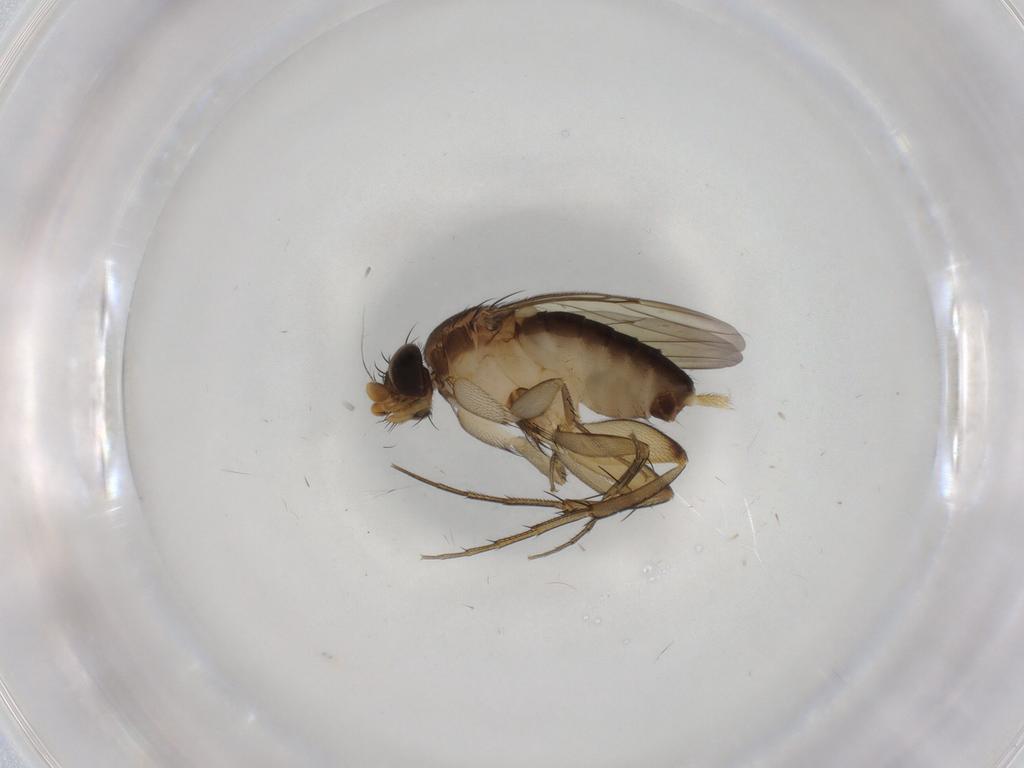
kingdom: Animalia
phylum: Arthropoda
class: Insecta
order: Diptera
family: Phoridae
